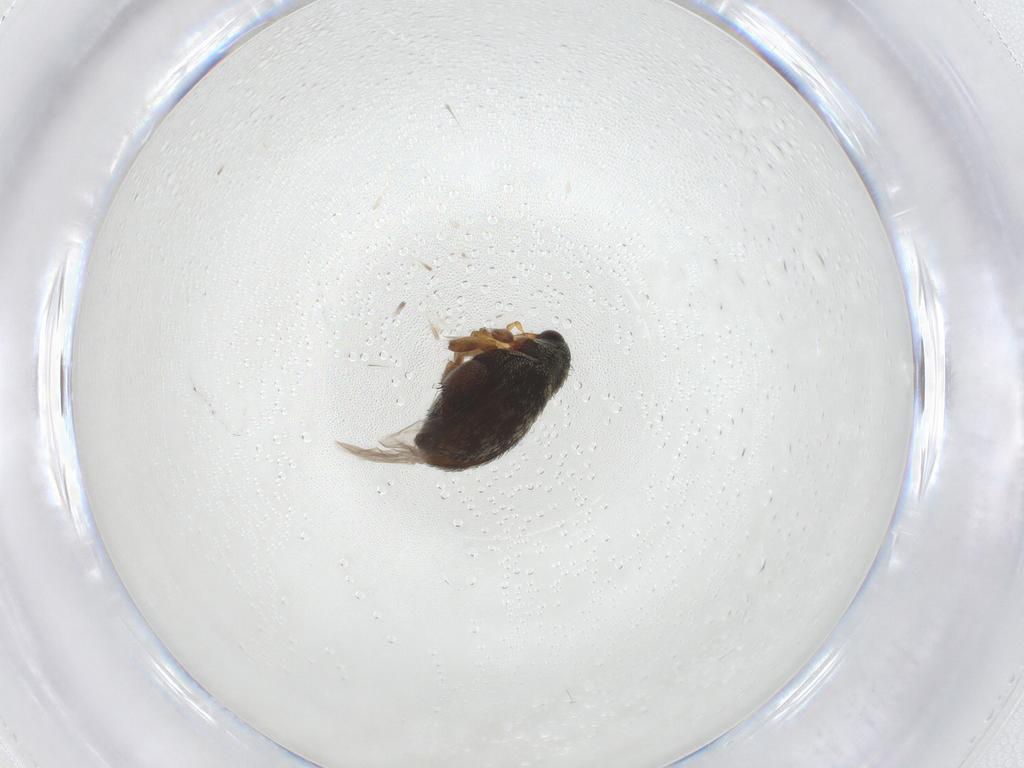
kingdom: Animalia
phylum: Arthropoda
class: Insecta
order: Coleoptera
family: Curculionidae
